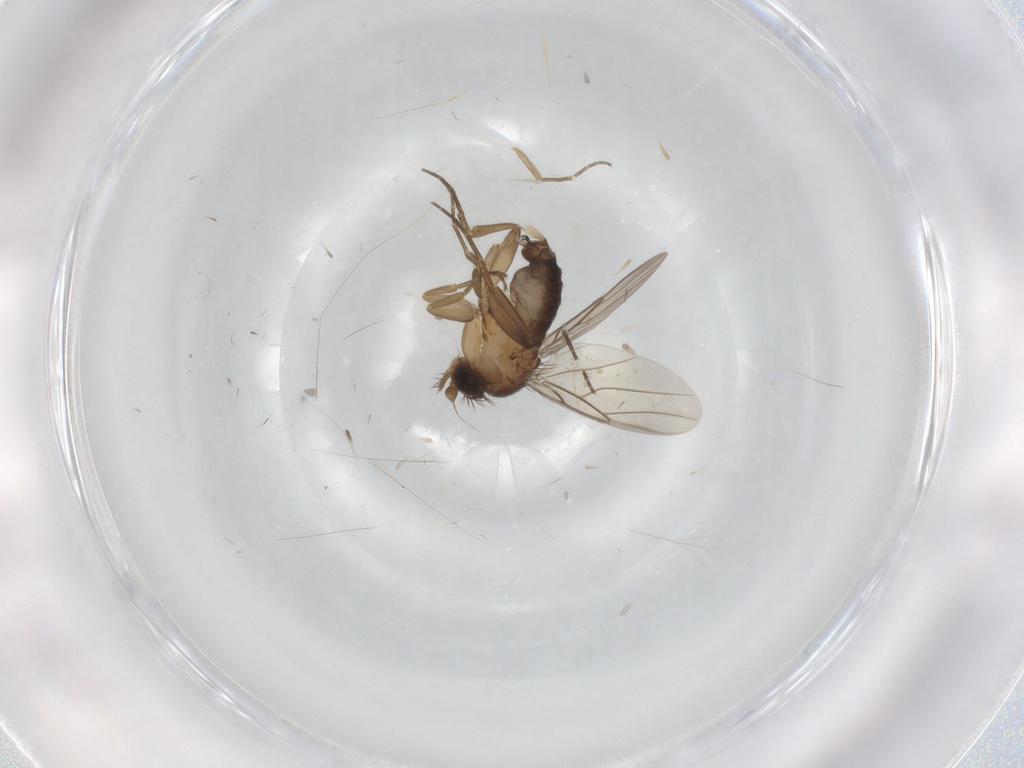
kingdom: Animalia
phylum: Arthropoda
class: Insecta
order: Diptera
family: Phoridae
